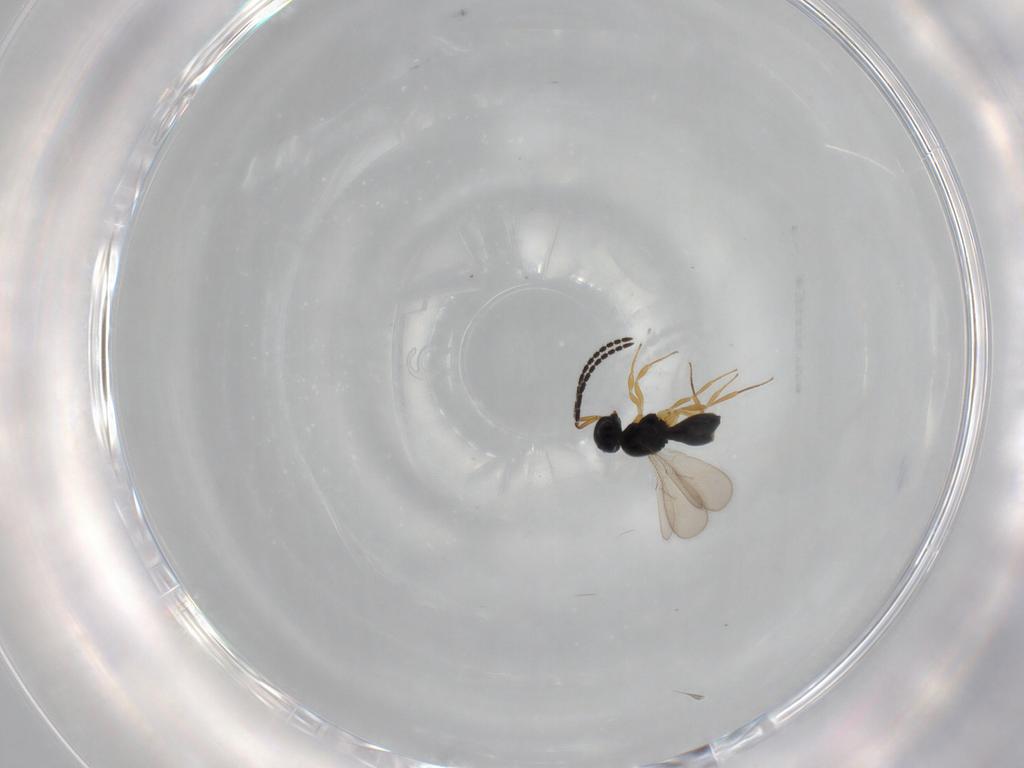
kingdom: Animalia
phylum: Arthropoda
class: Insecta
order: Hymenoptera
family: Scelionidae
